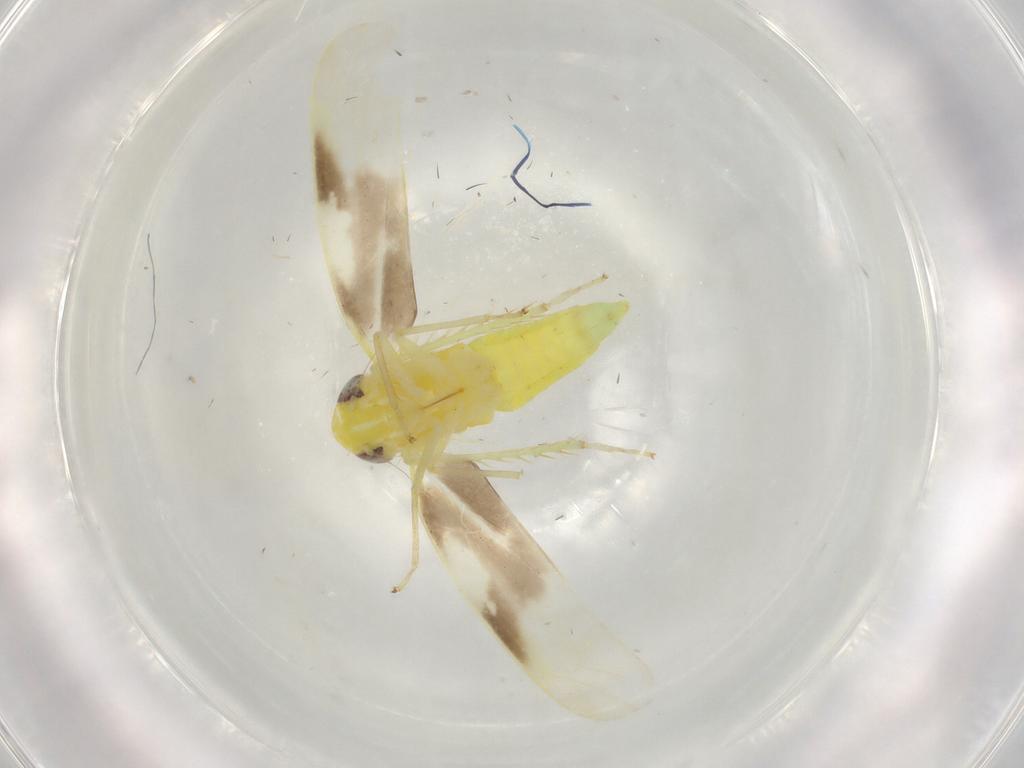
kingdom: Animalia
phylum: Arthropoda
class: Insecta
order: Hemiptera
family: Cicadellidae
